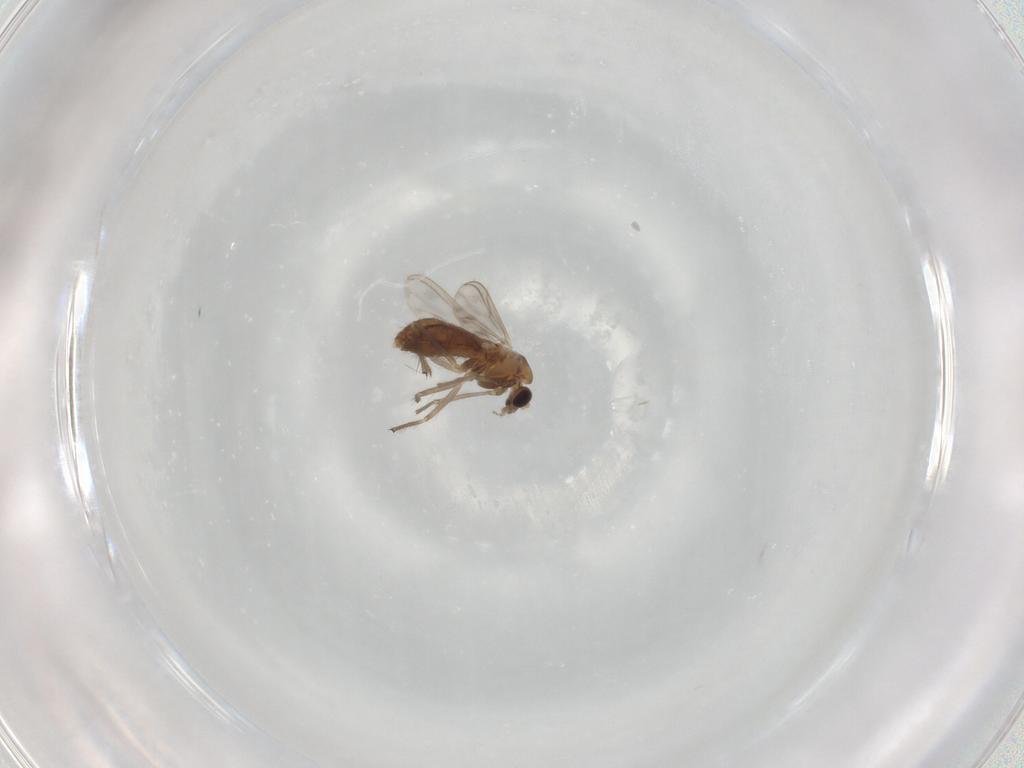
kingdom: Animalia
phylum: Arthropoda
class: Insecta
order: Diptera
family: Chironomidae
